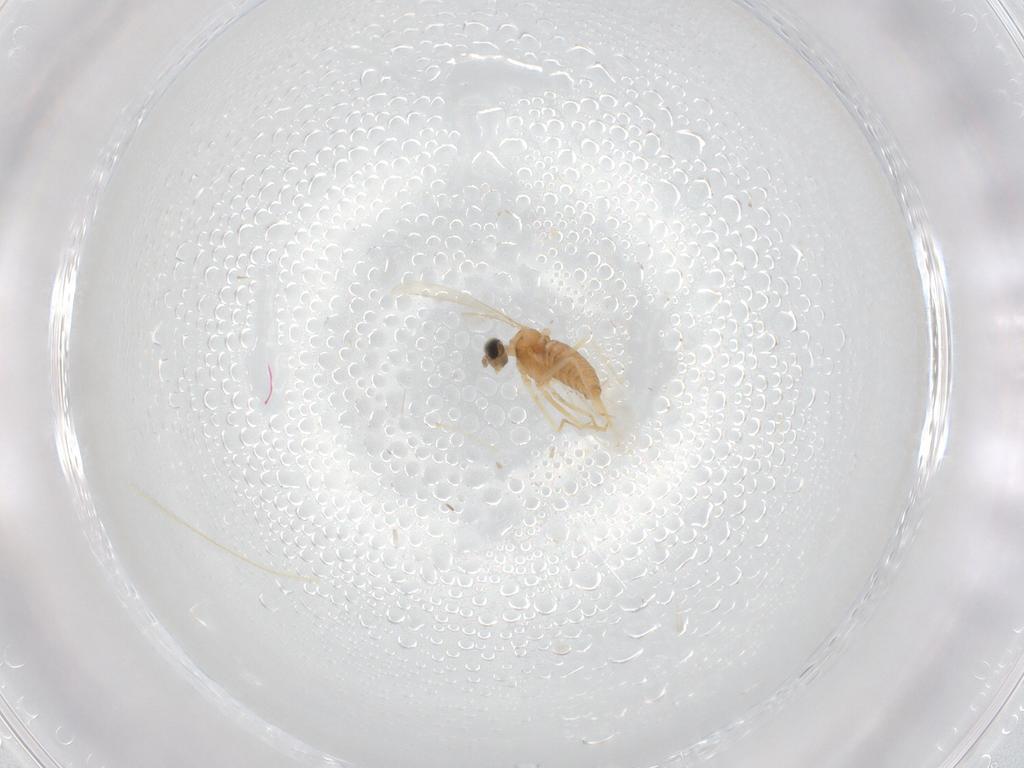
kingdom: Animalia
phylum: Arthropoda
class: Insecta
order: Diptera
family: Cecidomyiidae
